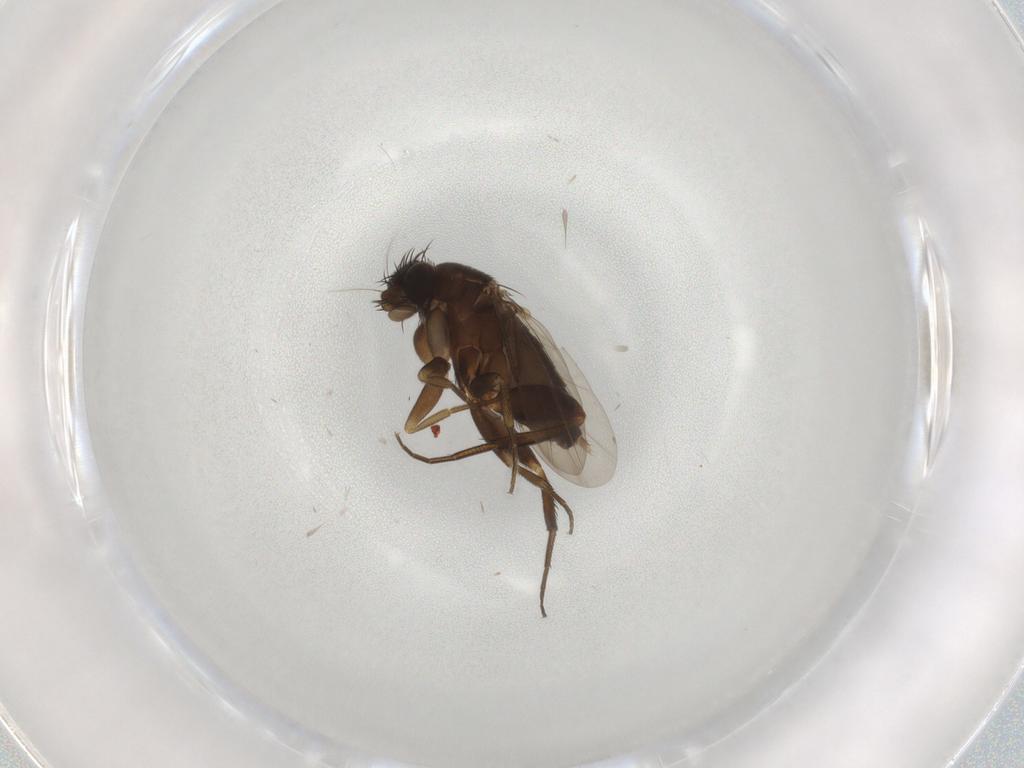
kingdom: Animalia
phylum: Arthropoda
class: Insecta
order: Diptera
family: Phoridae
